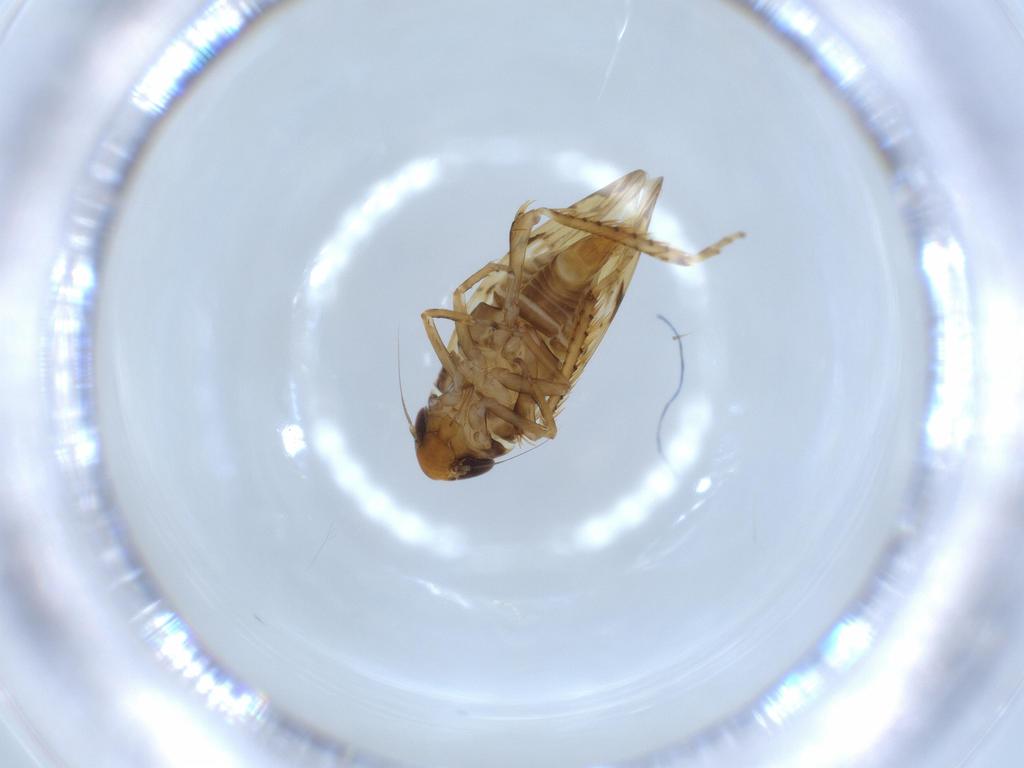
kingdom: Animalia
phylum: Arthropoda
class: Insecta
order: Hemiptera
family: Cicadellidae
